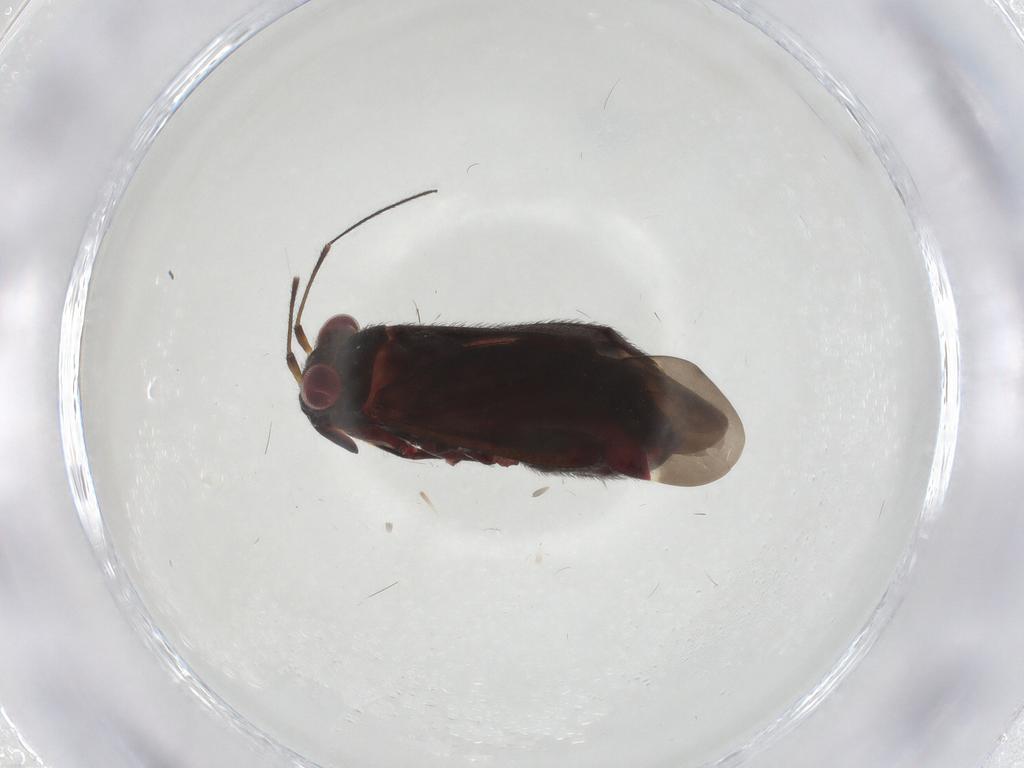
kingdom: Animalia
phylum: Arthropoda
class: Insecta
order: Hemiptera
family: Miridae
